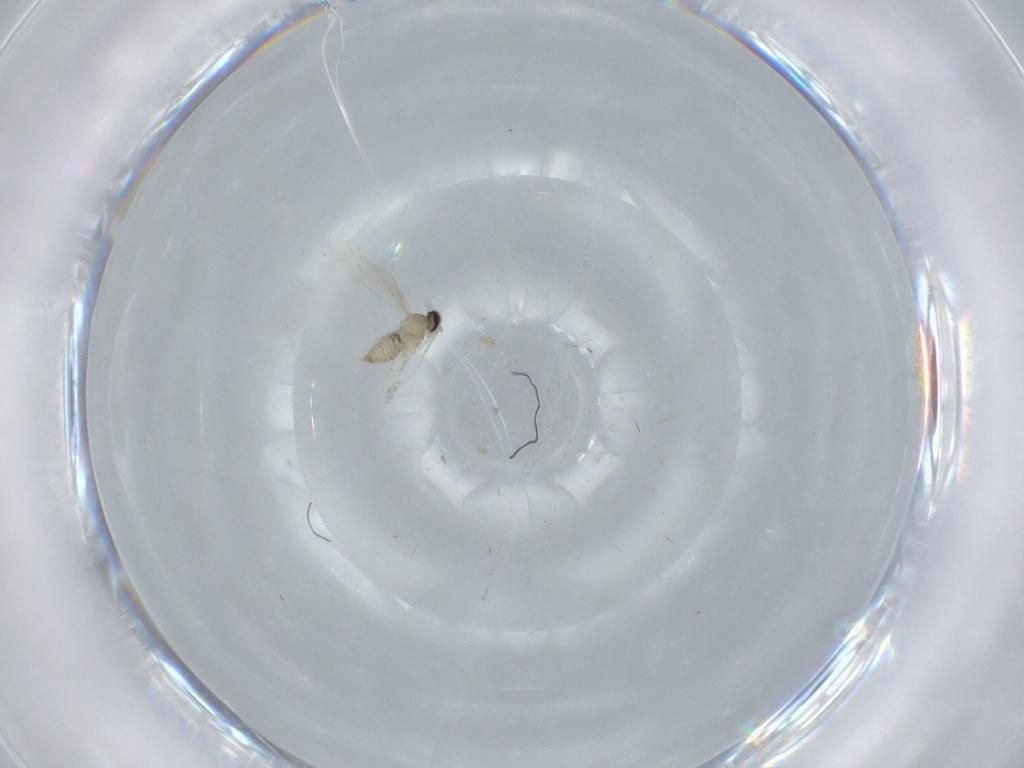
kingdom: Animalia
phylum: Arthropoda
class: Insecta
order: Diptera
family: Cecidomyiidae
